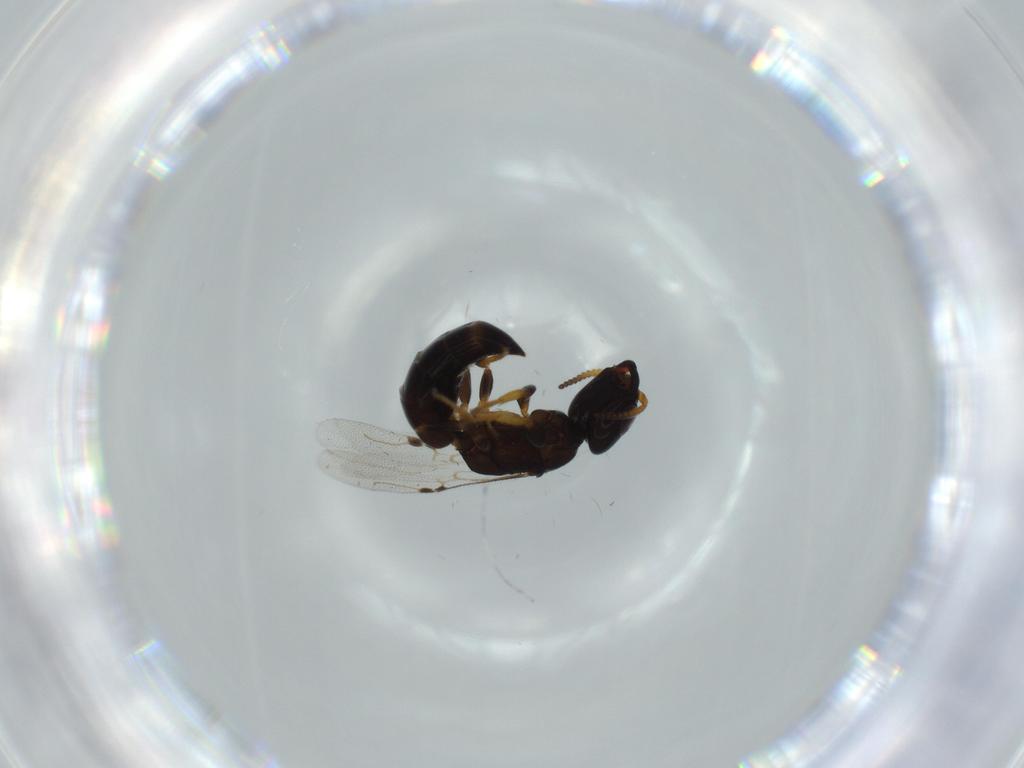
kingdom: Animalia
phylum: Arthropoda
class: Insecta
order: Hymenoptera
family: Bethylidae
